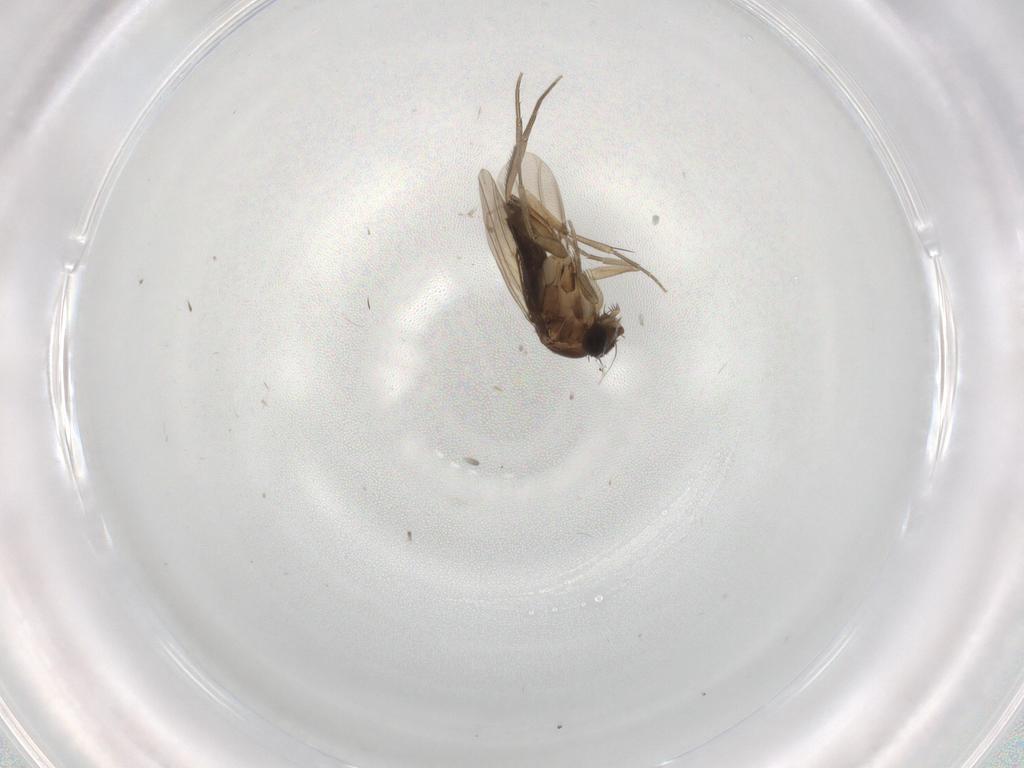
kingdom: Animalia
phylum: Arthropoda
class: Insecta
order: Diptera
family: Cecidomyiidae
